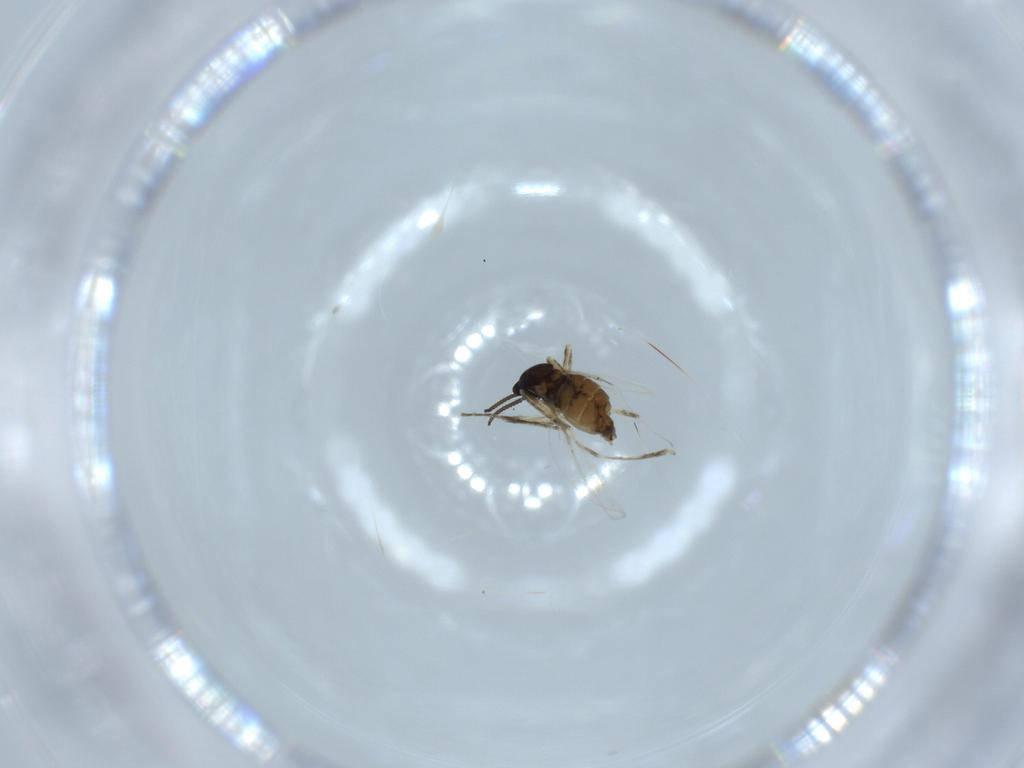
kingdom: Animalia
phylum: Arthropoda
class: Insecta
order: Diptera
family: Cecidomyiidae
